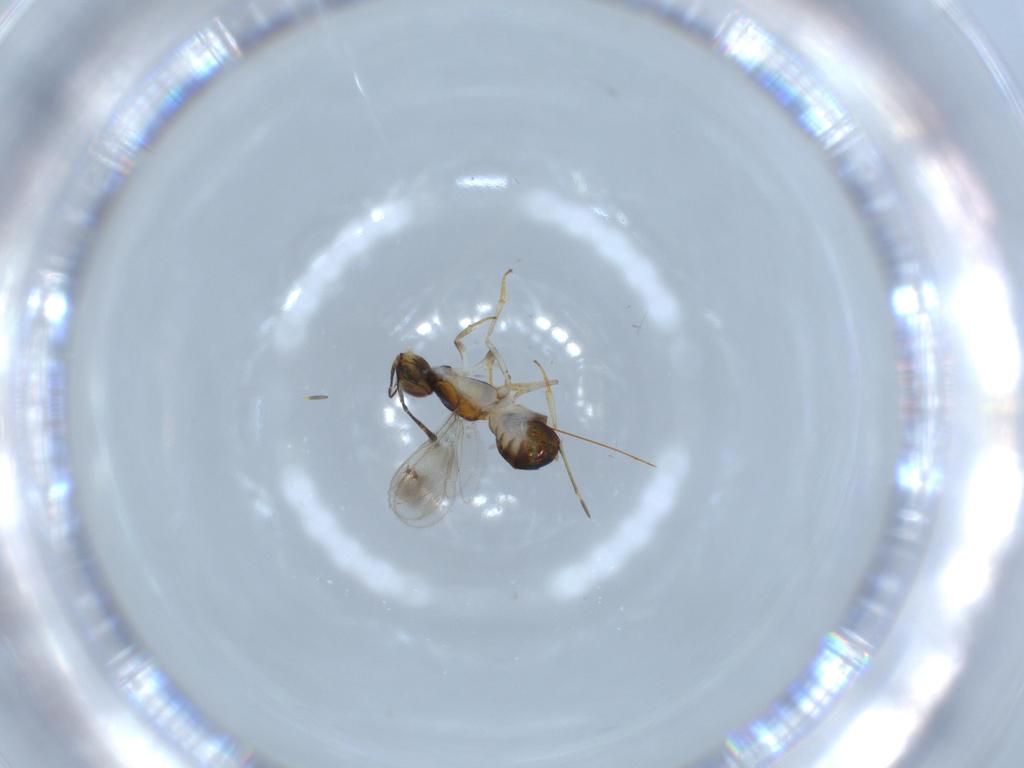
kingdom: Animalia
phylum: Arthropoda
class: Insecta
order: Hymenoptera
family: Pteromalidae
